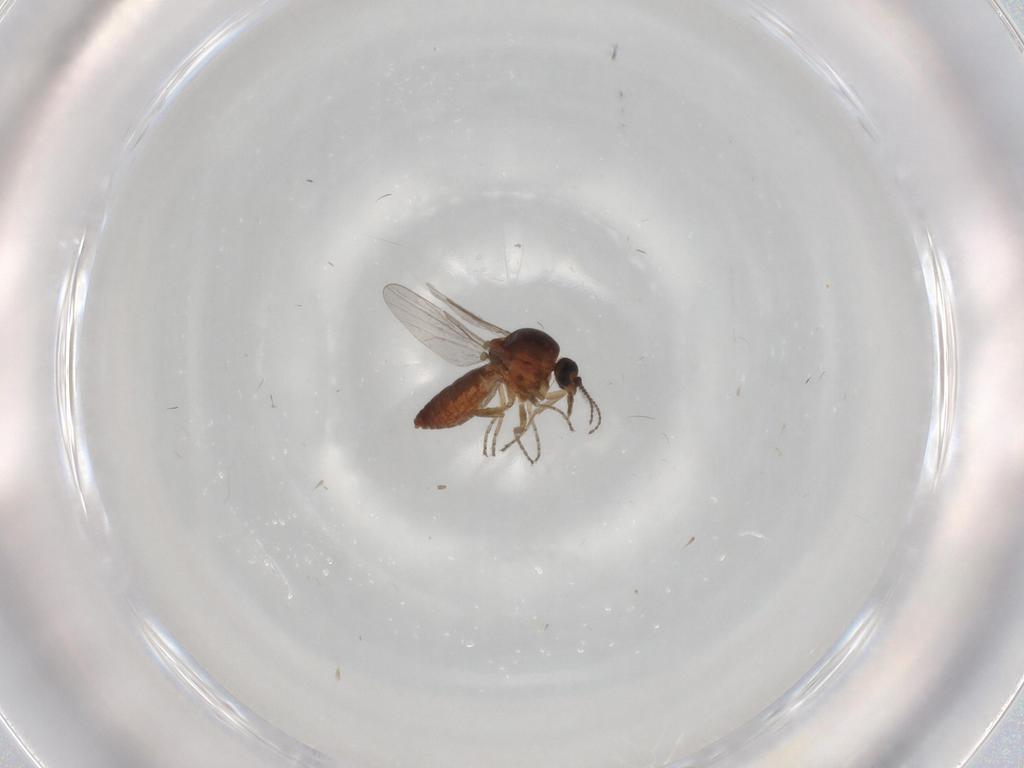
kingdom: Animalia
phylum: Arthropoda
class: Insecta
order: Diptera
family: Ceratopogonidae
